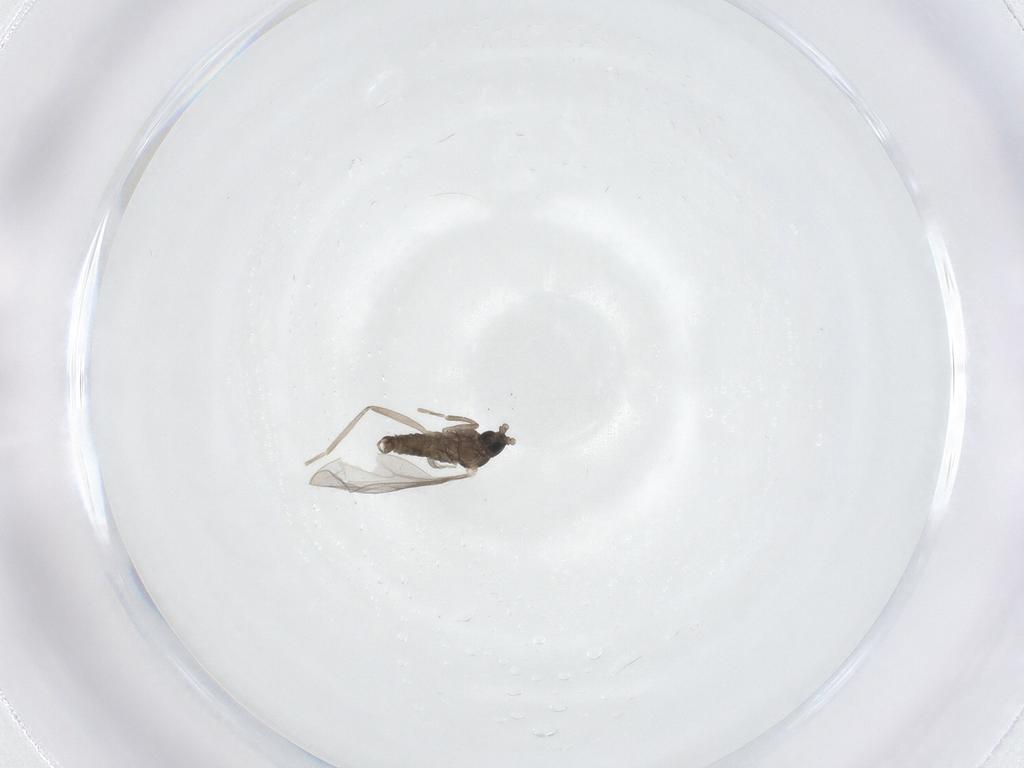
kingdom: Animalia
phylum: Arthropoda
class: Insecta
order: Diptera
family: Cecidomyiidae
